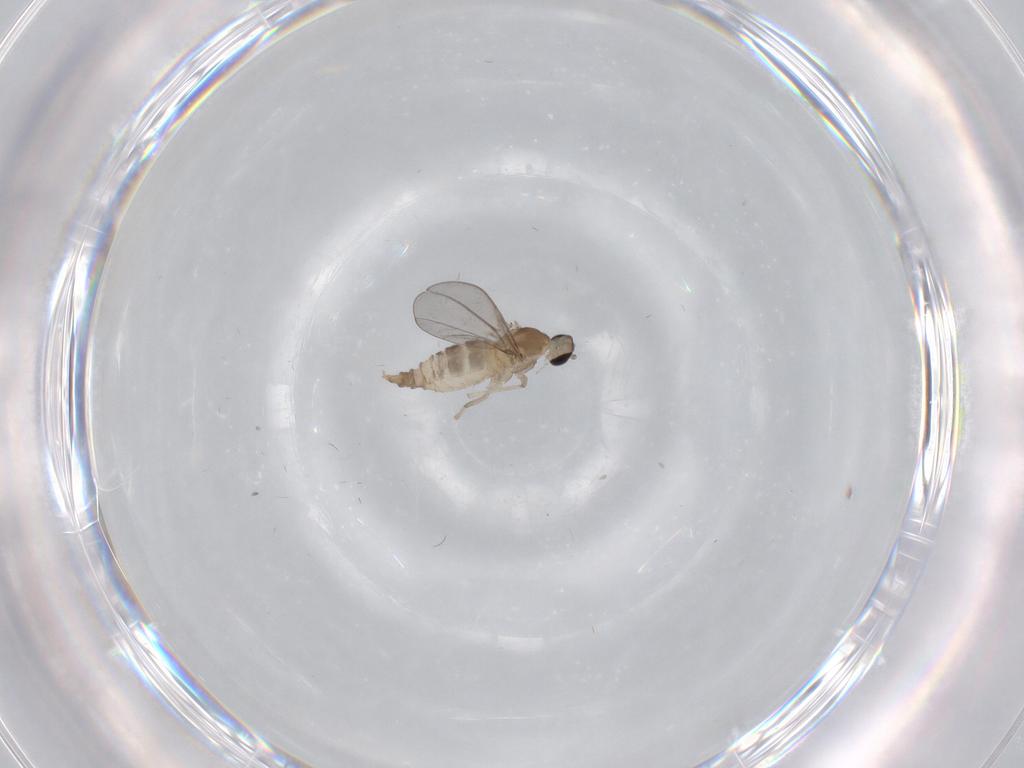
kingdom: Animalia
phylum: Arthropoda
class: Insecta
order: Diptera
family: Cecidomyiidae
